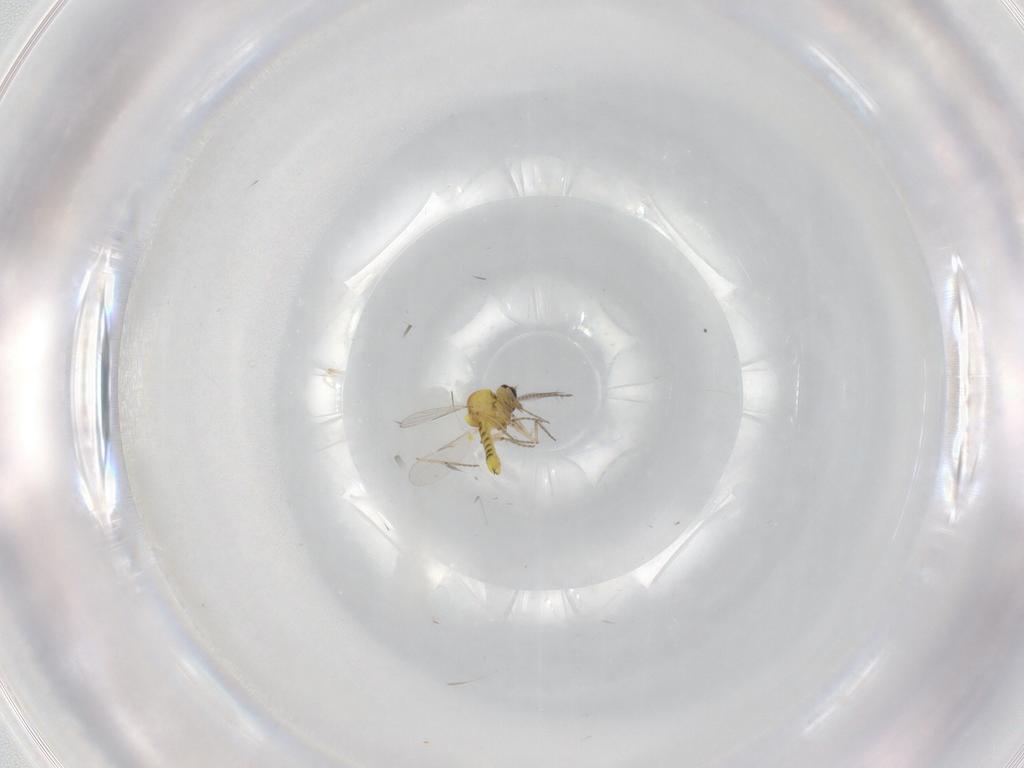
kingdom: Animalia
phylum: Arthropoda
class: Insecta
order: Diptera
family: Ceratopogonidae
